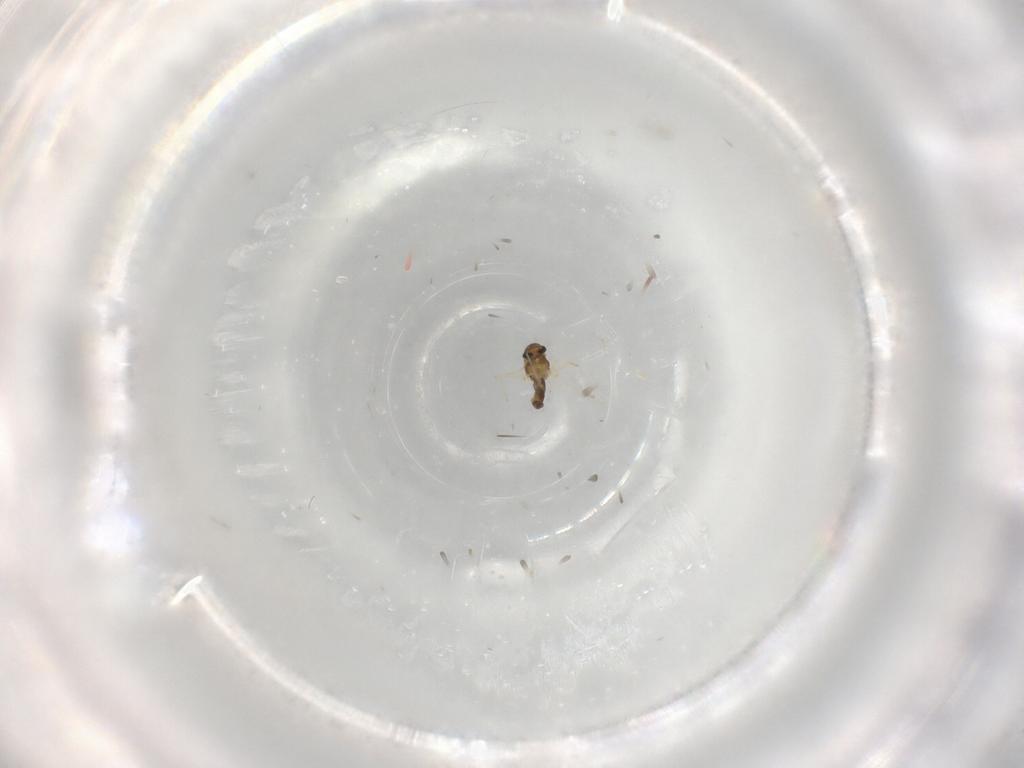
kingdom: Animalia
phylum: Arthropoda
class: Insecta
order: Diptera
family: Chironomidae
